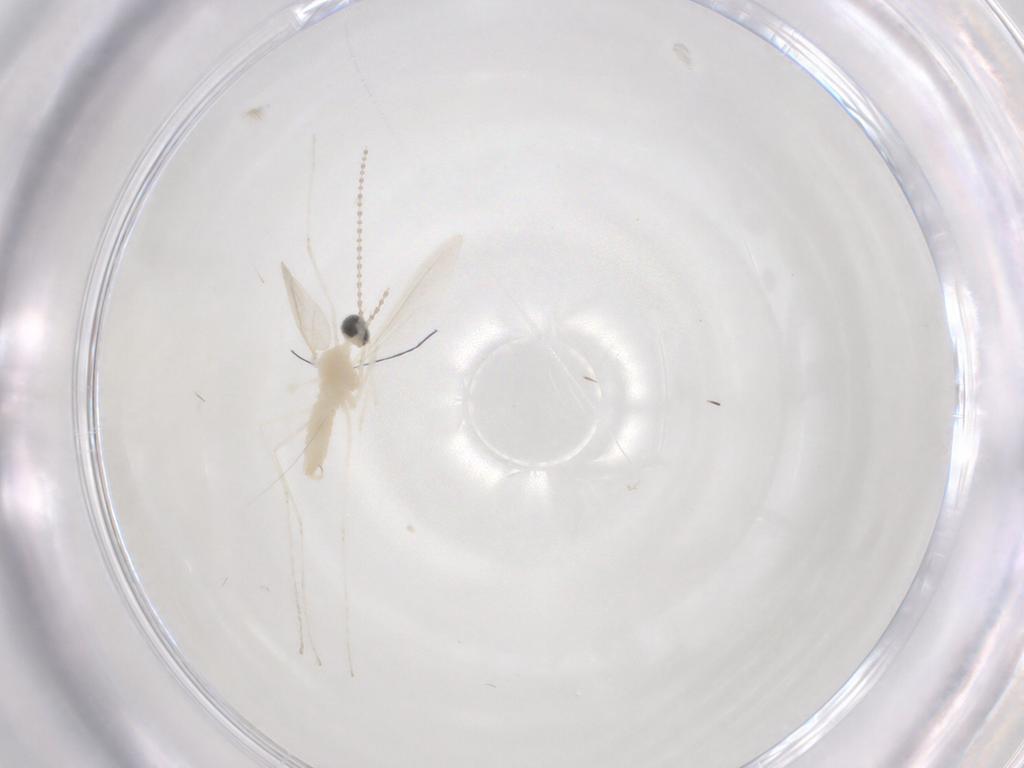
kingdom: Animalia
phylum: Arthropoda
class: Insecta
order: Diptera
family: Cecidomyiidae
